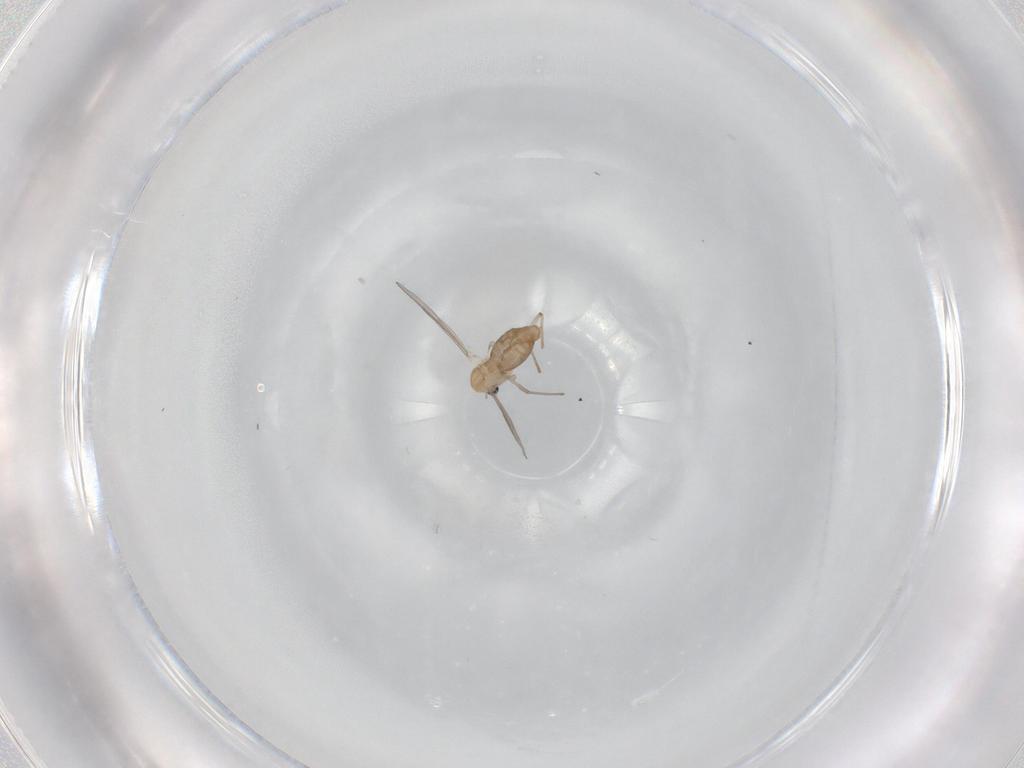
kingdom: Animalia
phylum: Arthropoda
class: Insecta
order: Diptera
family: Chironomidae
